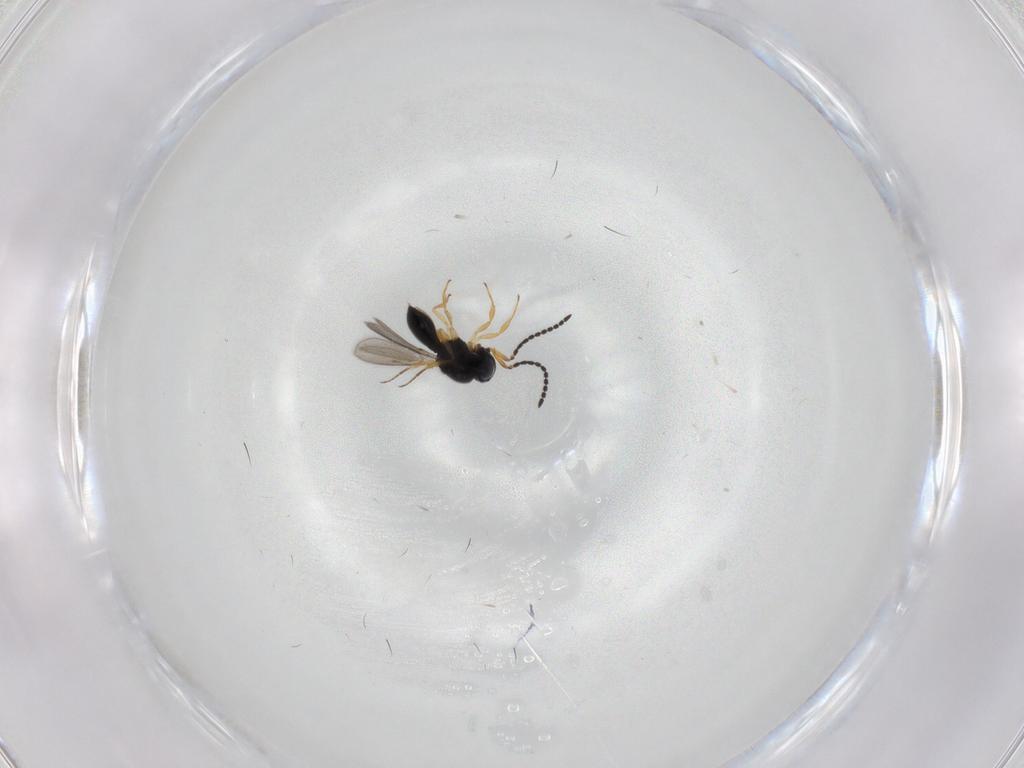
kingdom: Animalia
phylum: Arthropoda
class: Insecta
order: Hymenoptera
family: Scelionidae
